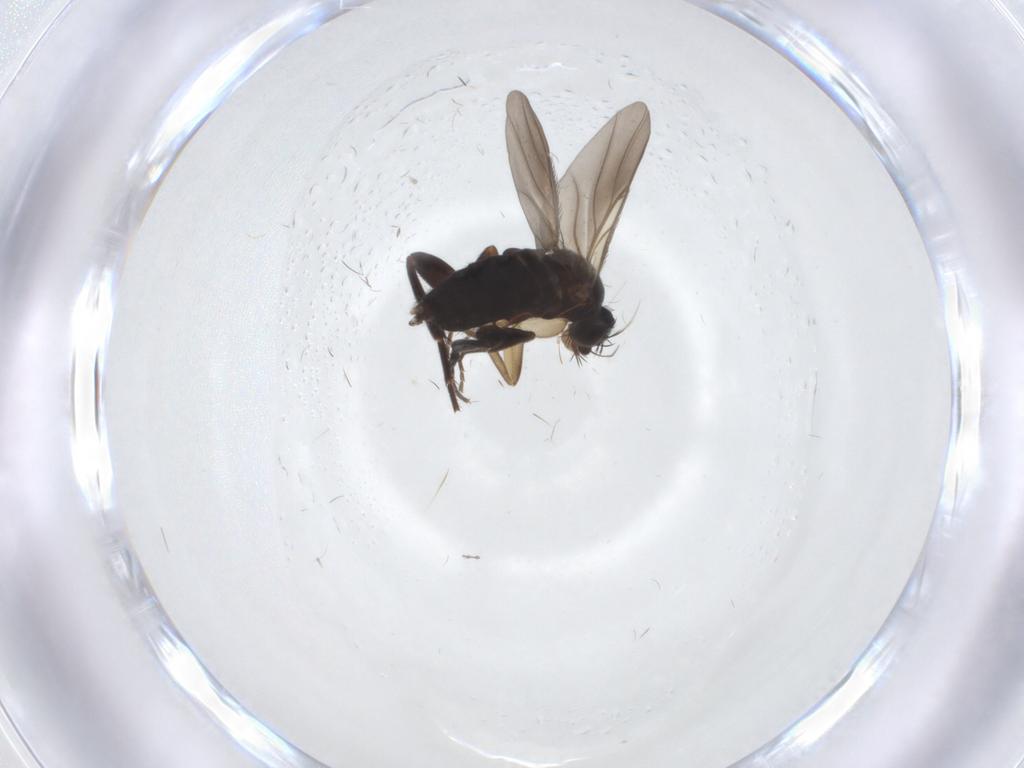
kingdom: Animalia
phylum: Arthropoda
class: Insecta
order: Diptera
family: Phoridae
